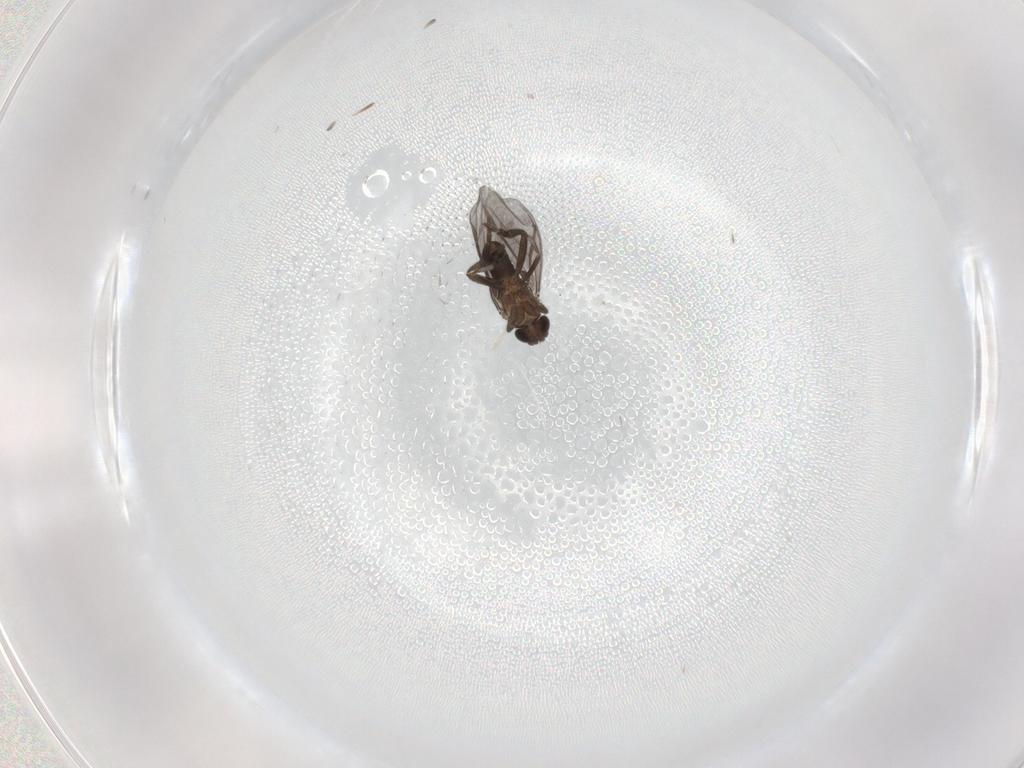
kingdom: Animalia
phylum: Arthropoda
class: Insecta
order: Diptera
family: Phoridae
